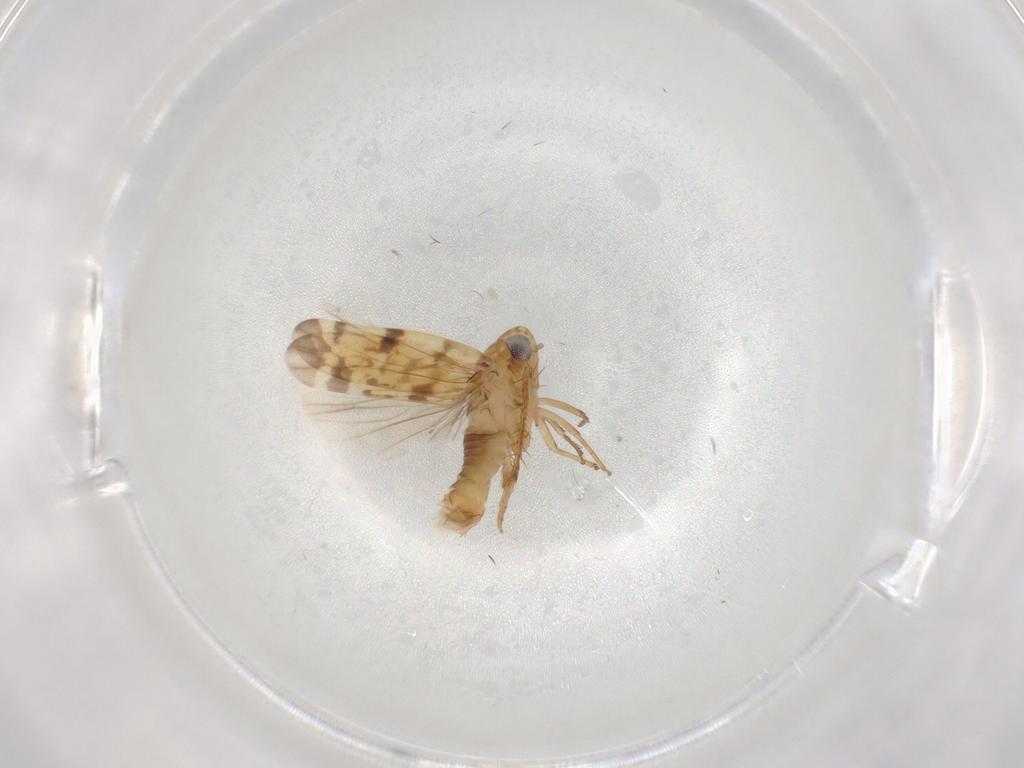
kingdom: Animalia
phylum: Arthropoda
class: Insecta
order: Hemiptera
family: Cicadellidae
